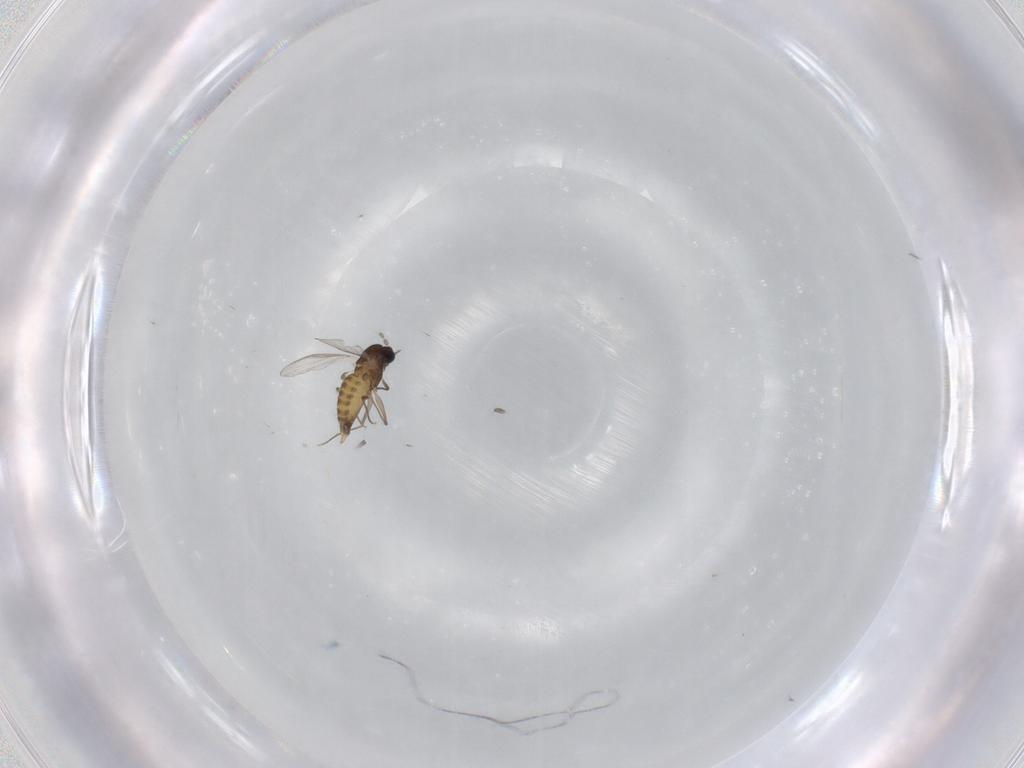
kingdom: Animalia
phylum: Arthropoda
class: Insecta
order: Diptera
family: Chironomidae
